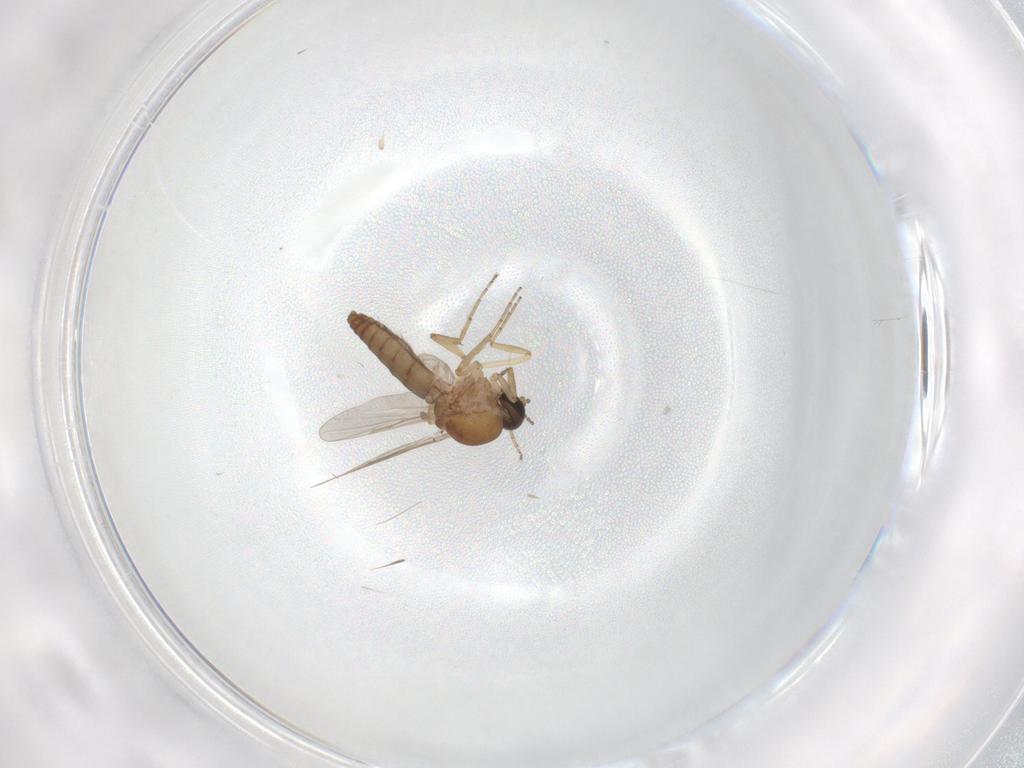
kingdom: Animalia
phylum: Arthropoda
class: Insecta
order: Diptera
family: Ceratopogonidae
